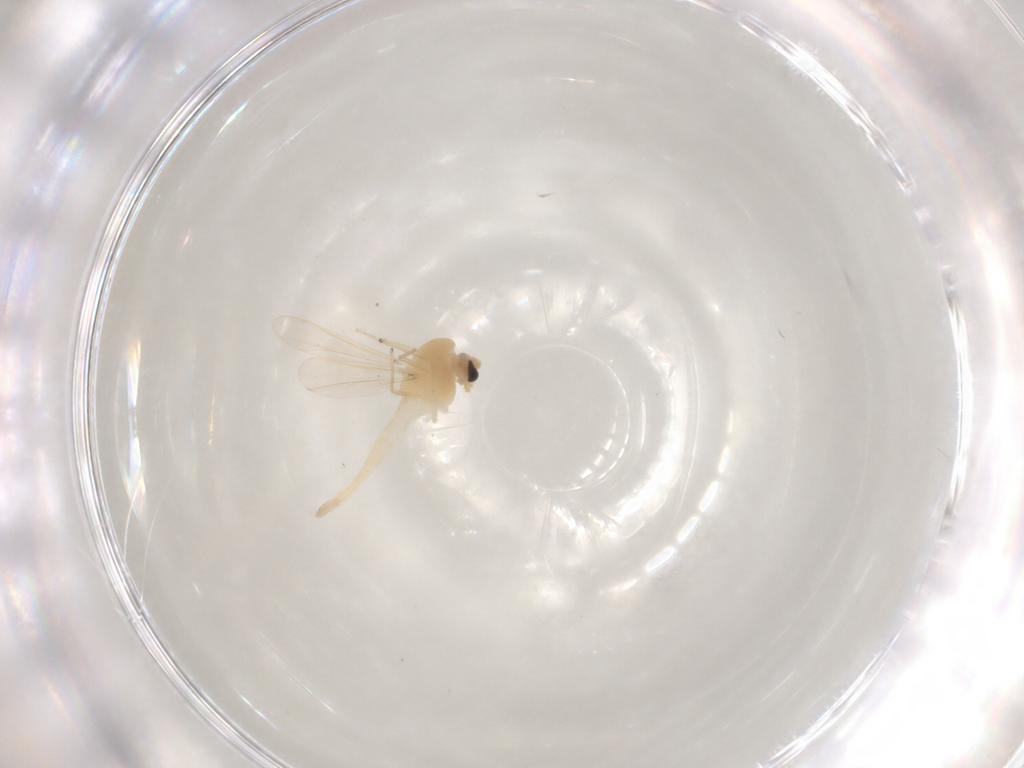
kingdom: Animalia
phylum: Arthropoda
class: Insecta
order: Diptera
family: Chironomidae
